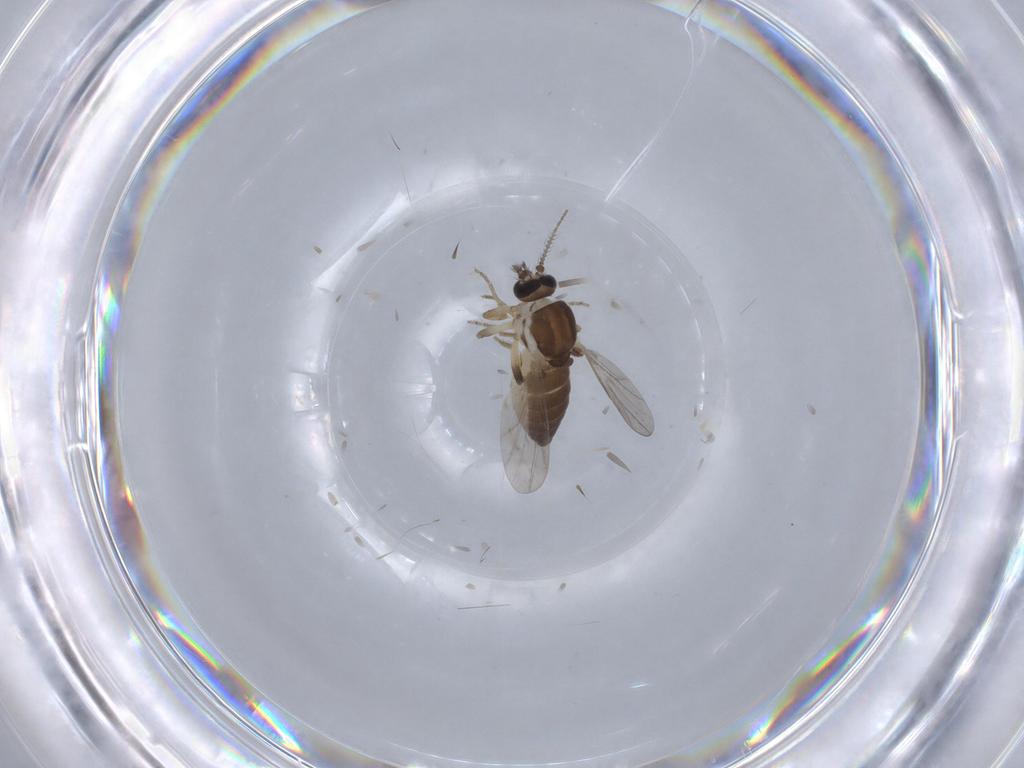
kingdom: Animalia
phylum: Arthropoda
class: Insecta
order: Diptera
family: Ceratopogonidae
